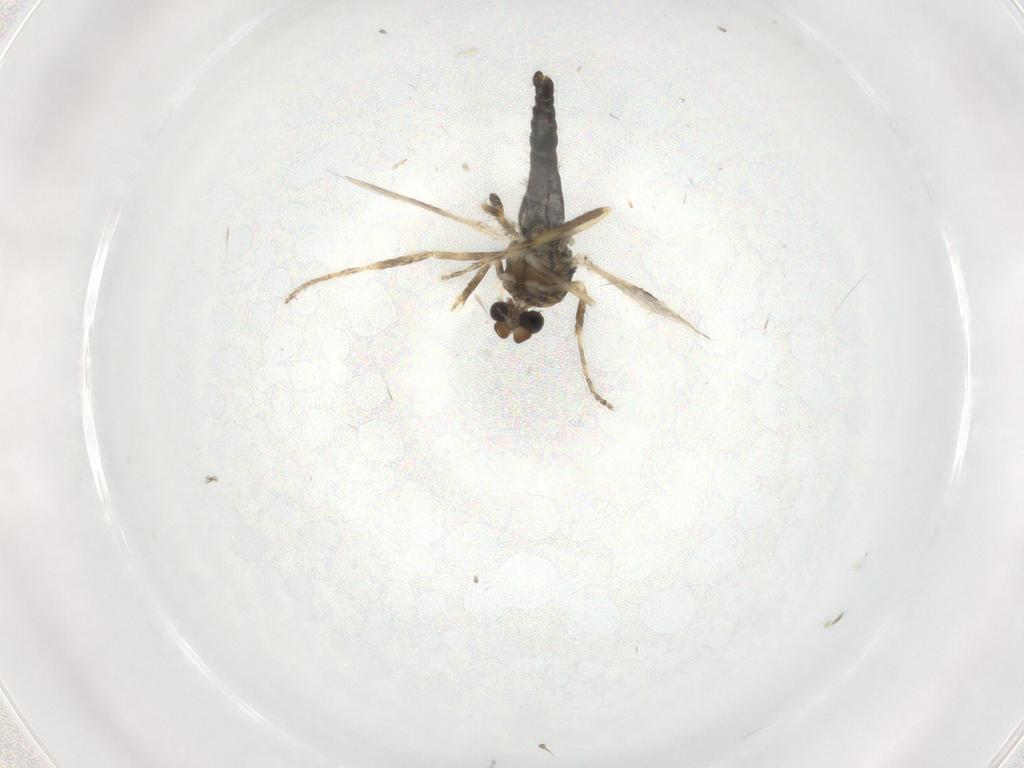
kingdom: Animalia
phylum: Arthropoda
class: Insecta
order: Diptera
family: Chironomidae
